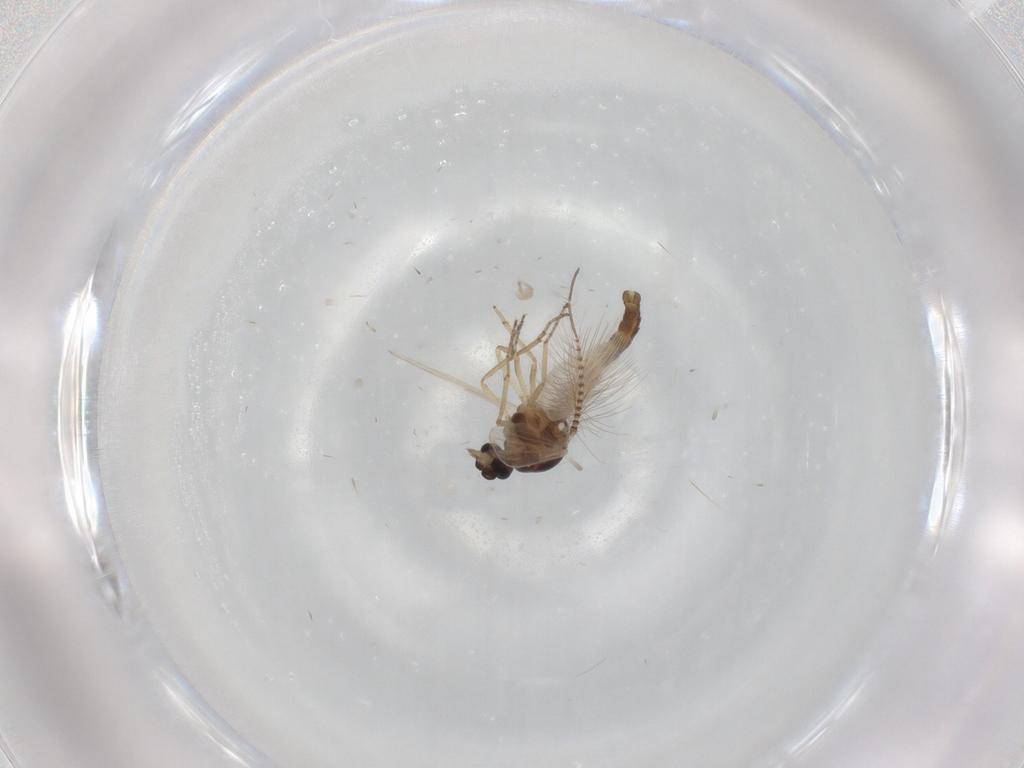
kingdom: Animalia
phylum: Arthropoda
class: Insecta
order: Diptera
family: Ceratopogonidae
